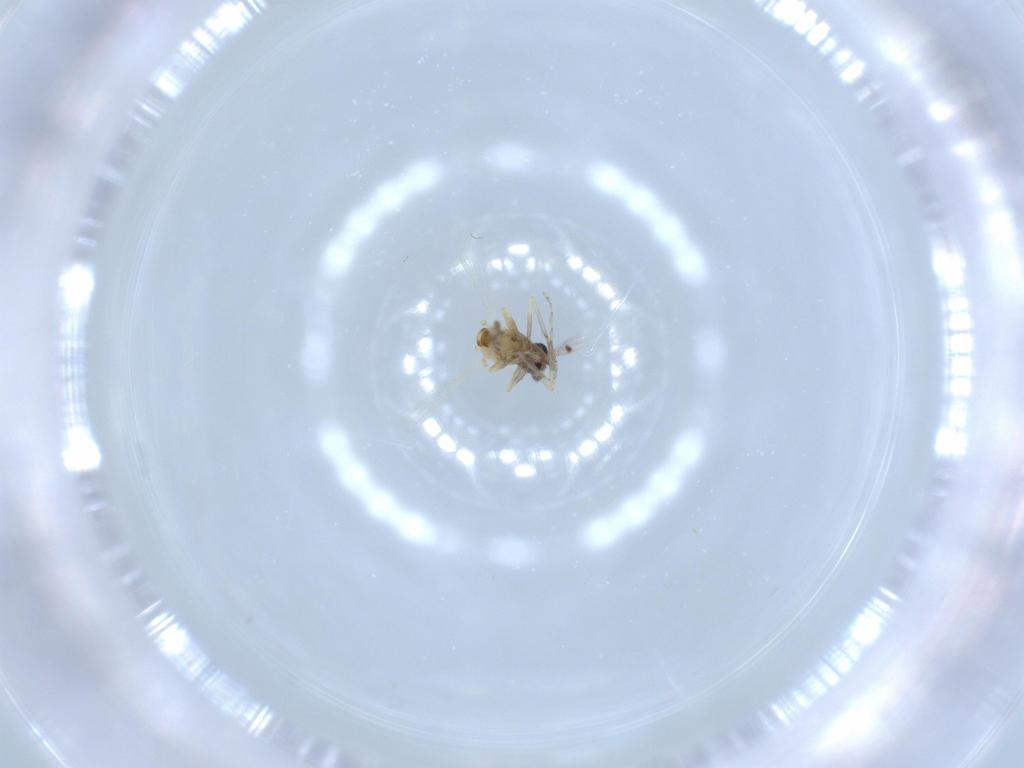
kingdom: Animalia
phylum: Arthropoda
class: Insecta
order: Diptera
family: Ceratopogonidae
